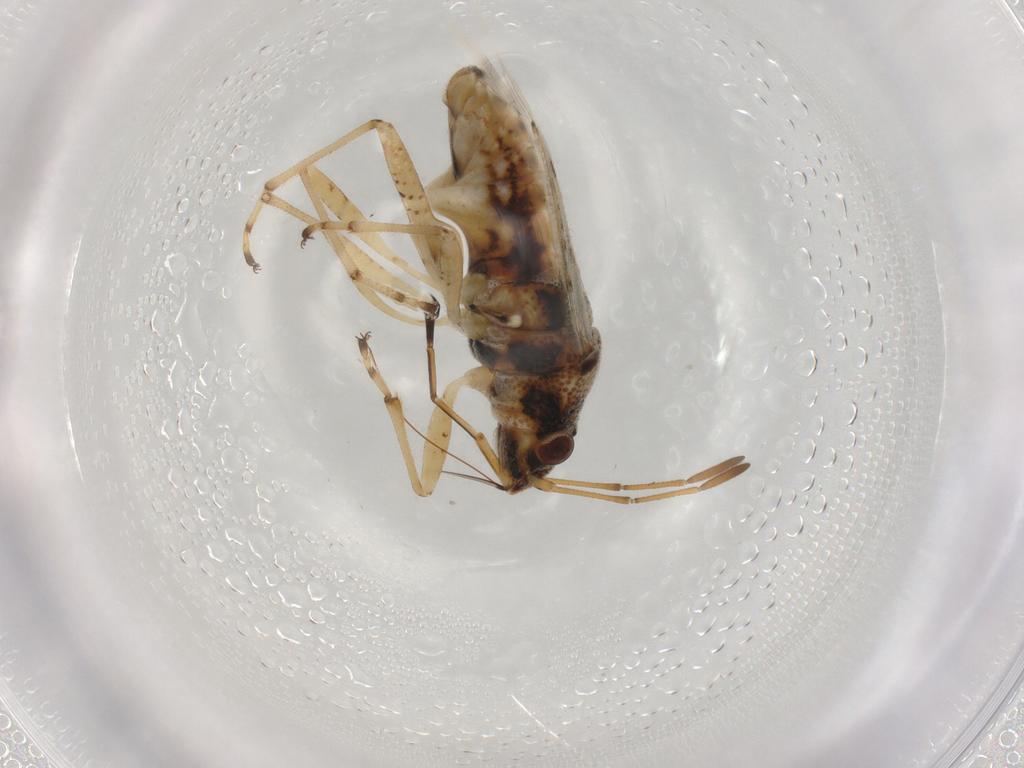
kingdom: Animalia
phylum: Arthropoda
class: Insecta
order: Hemiptera
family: Lygaeidae
